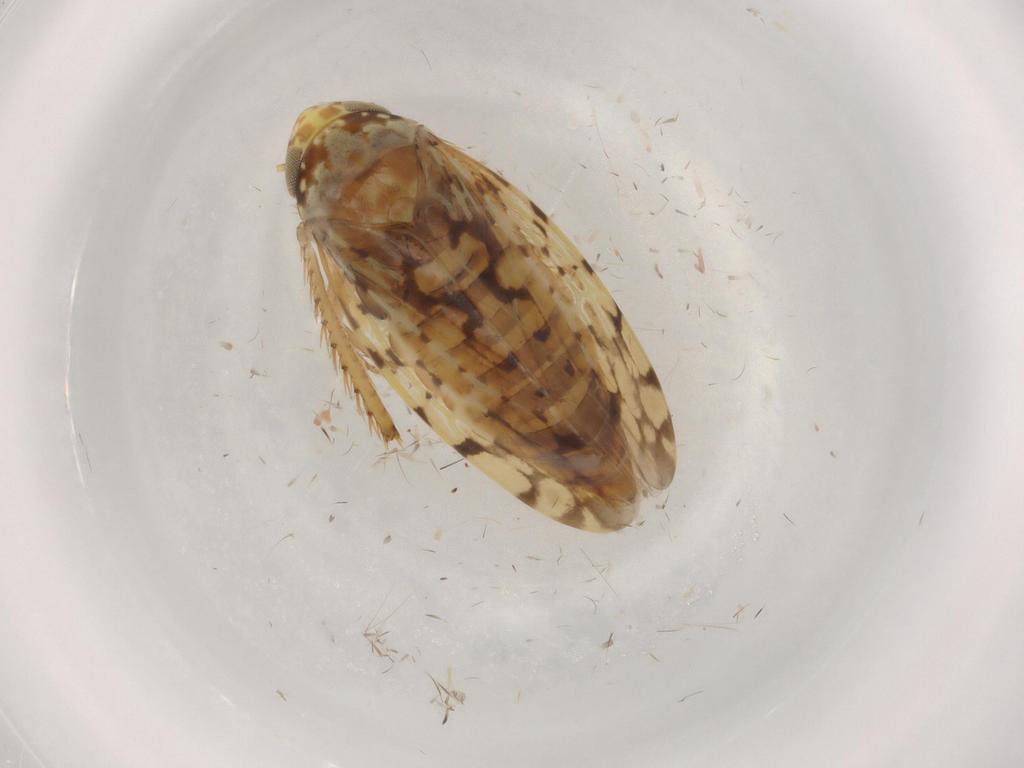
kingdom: Animalia
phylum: Arthropoda
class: Insecta
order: Hemiptera
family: Cicadellidae
